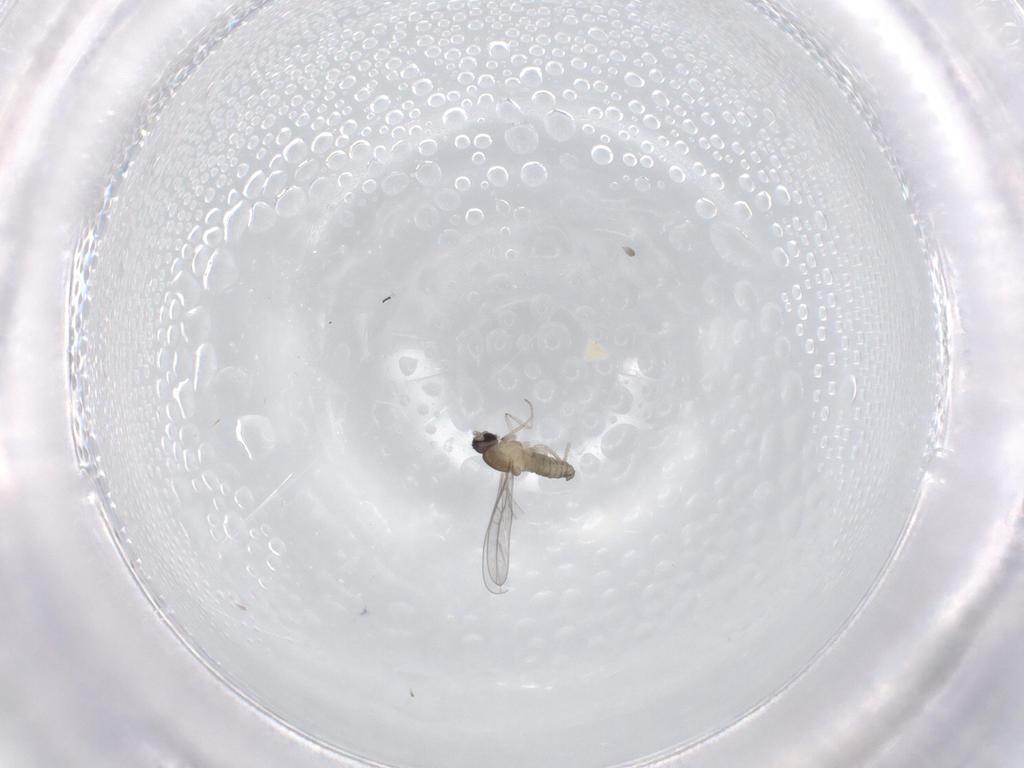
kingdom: Animalia
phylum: Arthropoda
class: Insecta
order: Diptera
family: Cecidomyiidae
